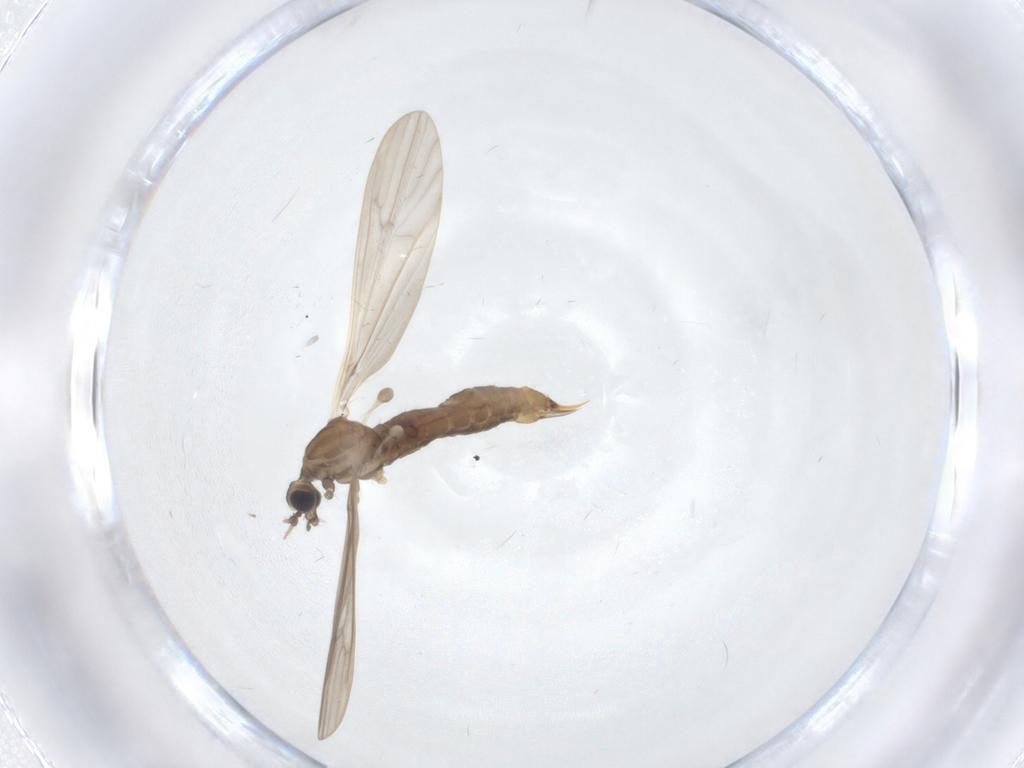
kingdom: Animalia
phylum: Arthropoda
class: Insecta
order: Diptera
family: Limoniidae
